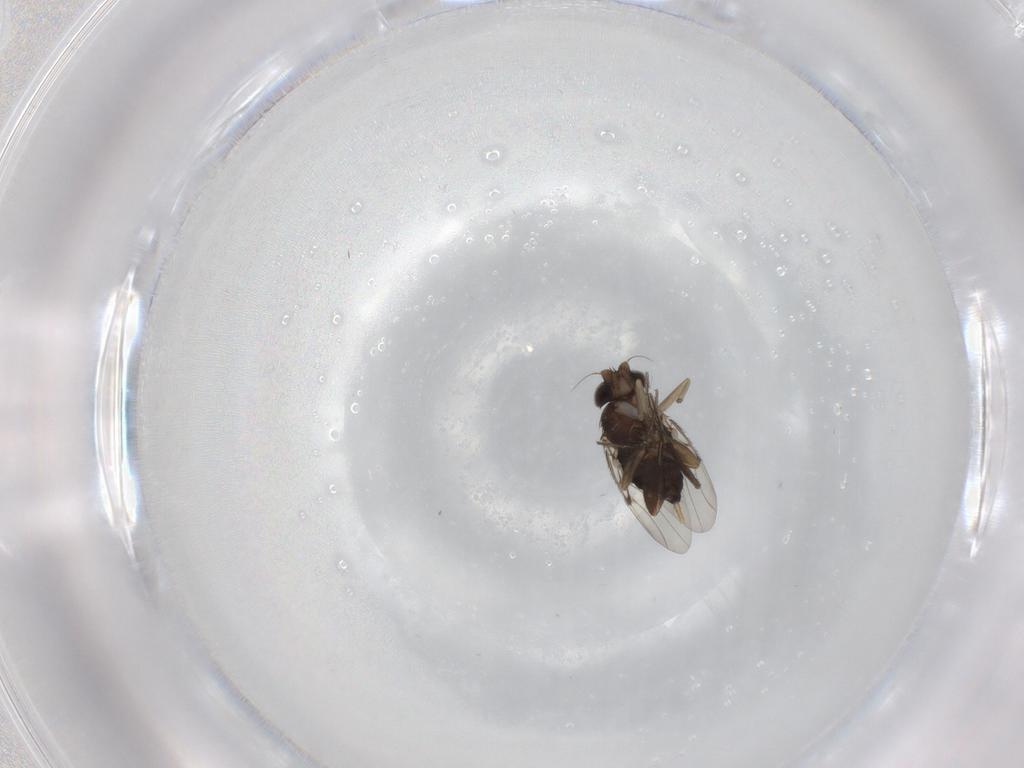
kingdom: Animalia
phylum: Arthropoda
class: Insecta
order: Diptera
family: Phoridae
